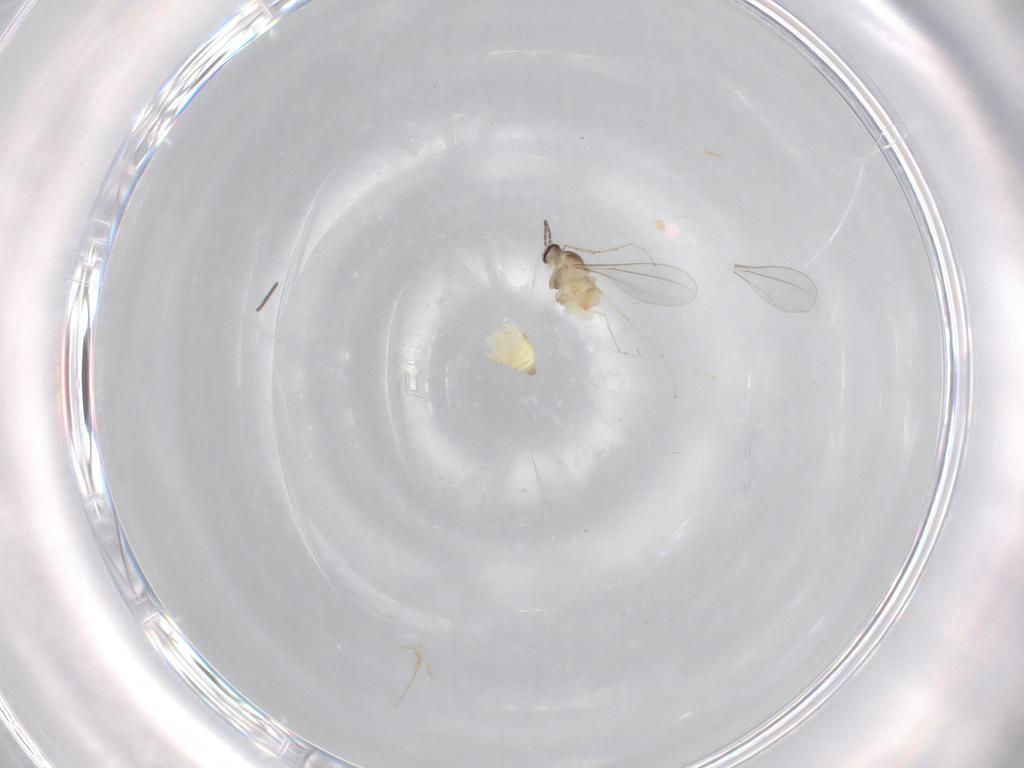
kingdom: Animalia
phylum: Arthropoda
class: Insecta
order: Diptera
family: Cecidomyiidae
